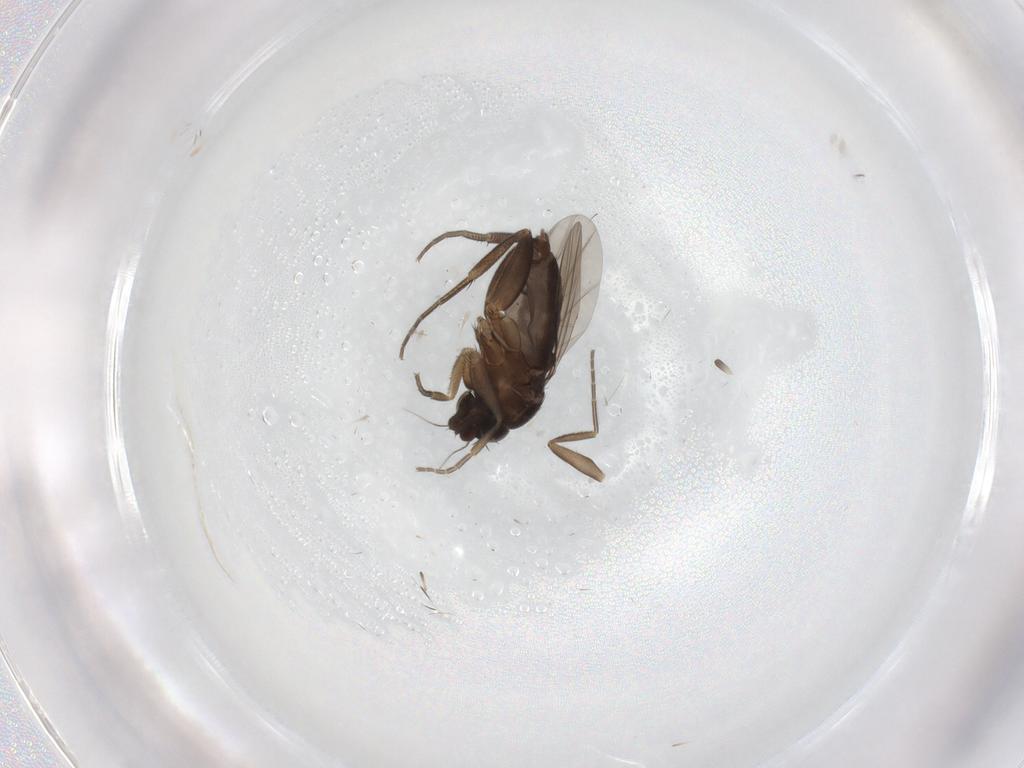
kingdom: Animalia
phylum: Arthropoda
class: Insecta
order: Diptera
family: Phoridae
